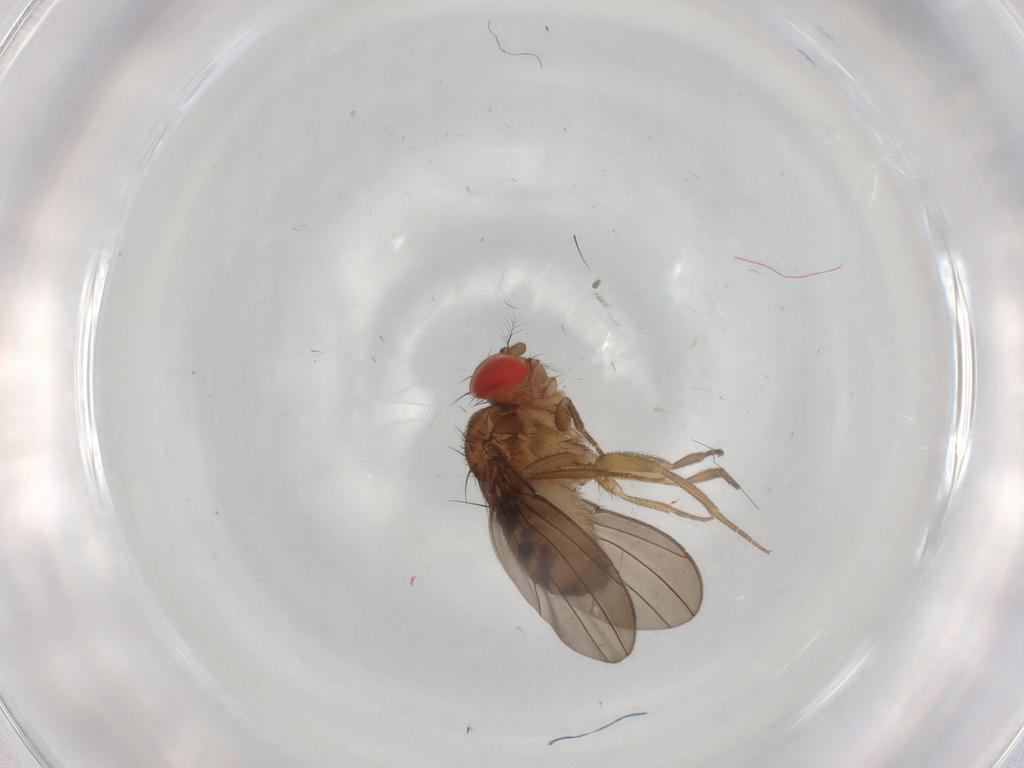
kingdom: Animalia
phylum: Arthropoda
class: Insecta
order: Diptera
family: Drosophilidae
